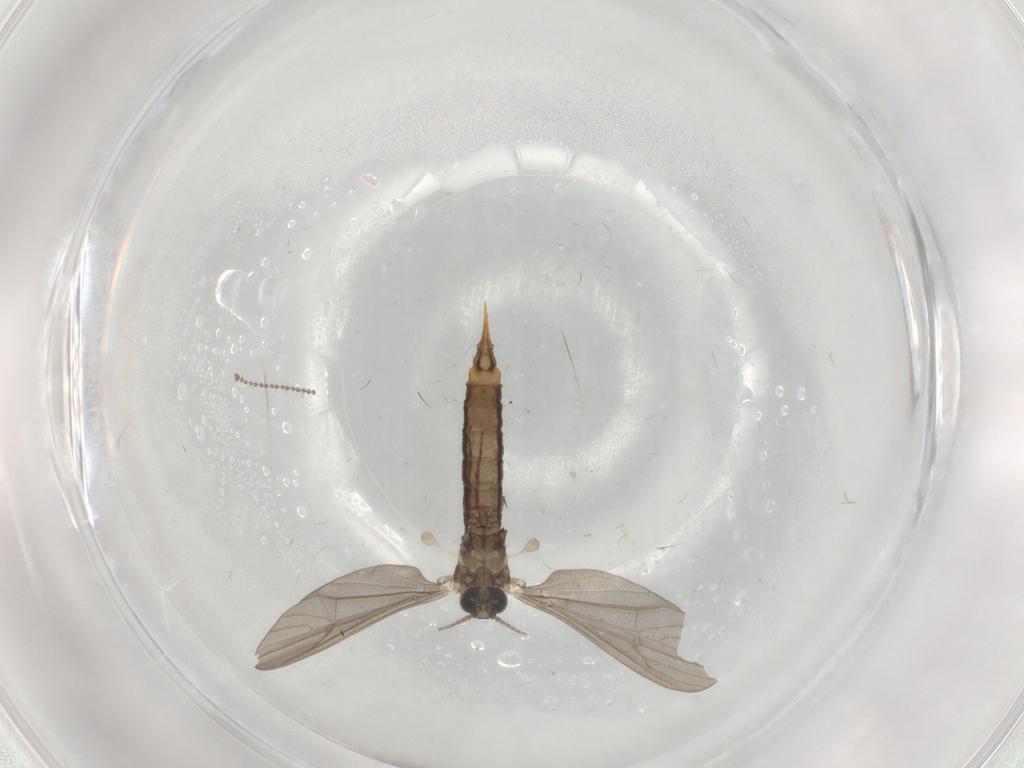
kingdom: Animalia
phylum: Arthropoda
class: Insecta
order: Diptera
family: Limoniidae
